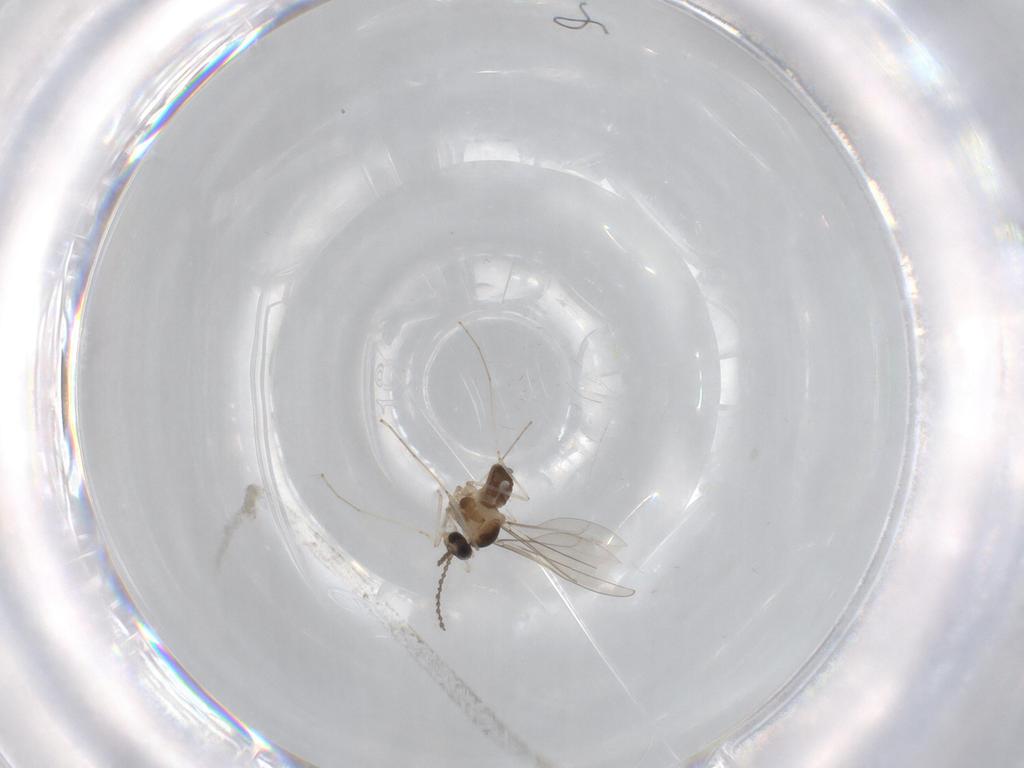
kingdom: Animalia
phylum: Arthropoda
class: Insecta
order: Diptera
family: Cecidomyiidae
